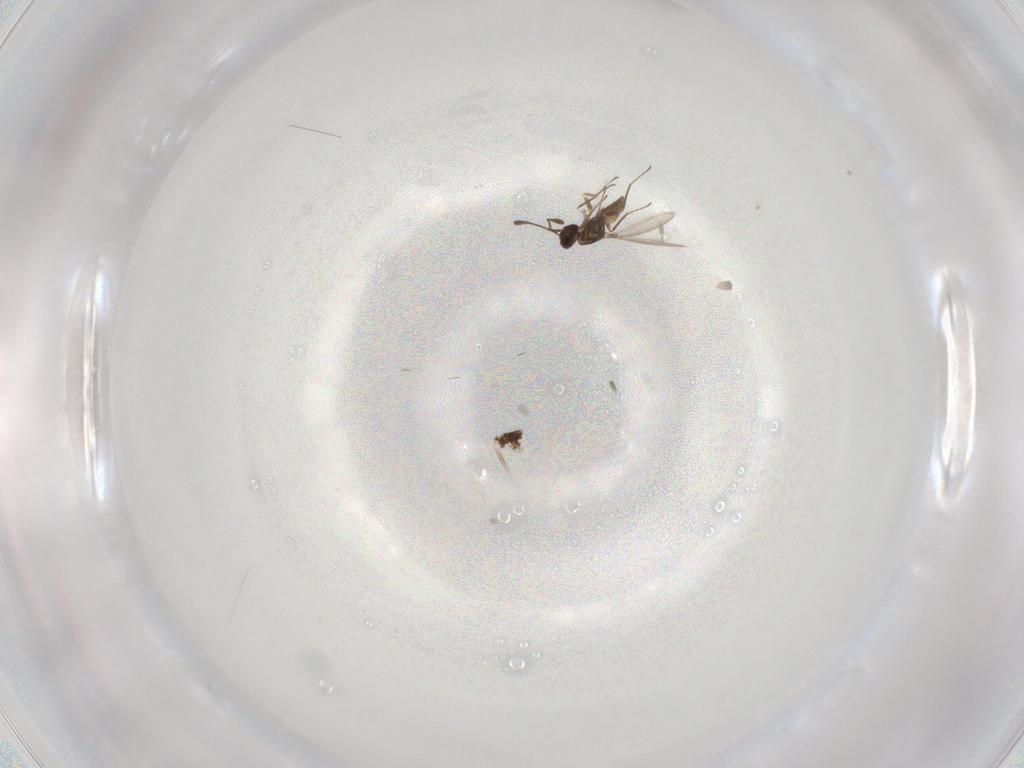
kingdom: Animalia
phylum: Arthropoda
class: Insecta
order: Hymenoptera
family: Mymaridae
